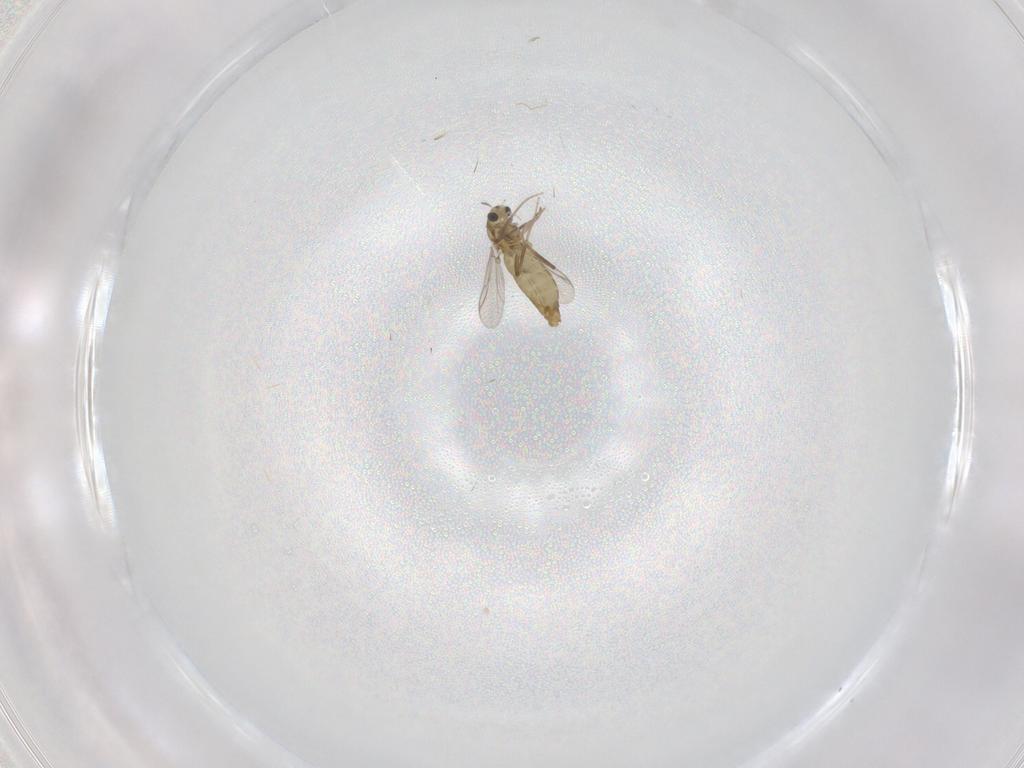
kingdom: Animalia
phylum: Arthropoda
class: Insecta
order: Diptera
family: Chironomidae
